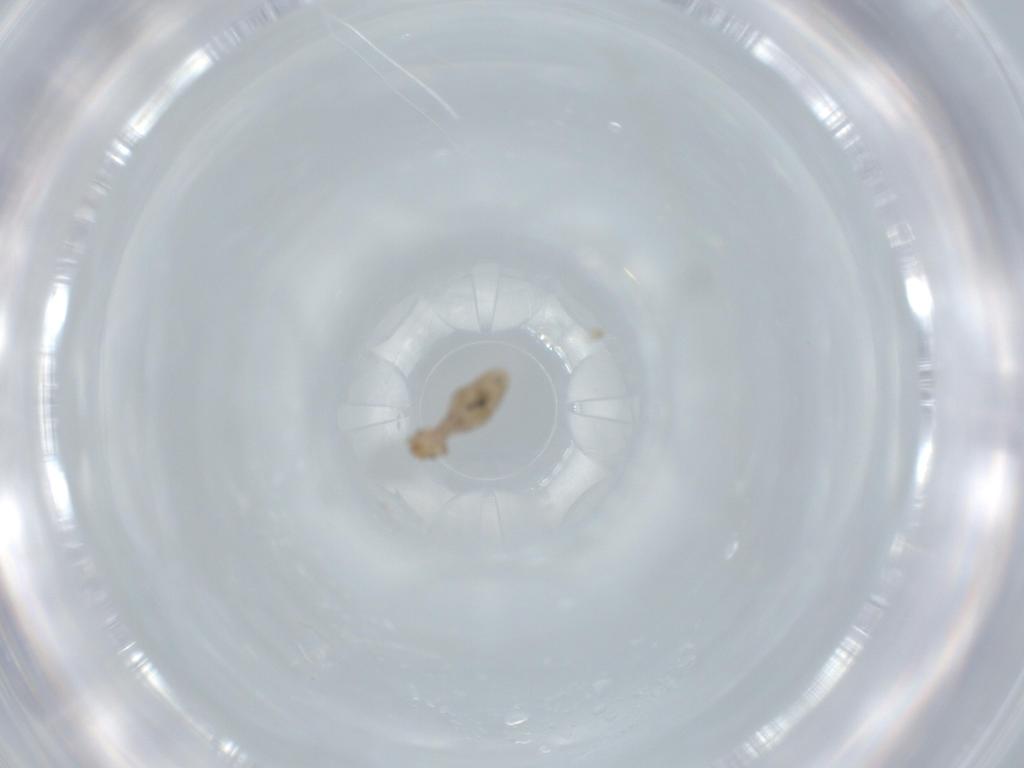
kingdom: Animalia
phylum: Arthropoda
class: Insecta
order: Psocodea
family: Liposcelididae
